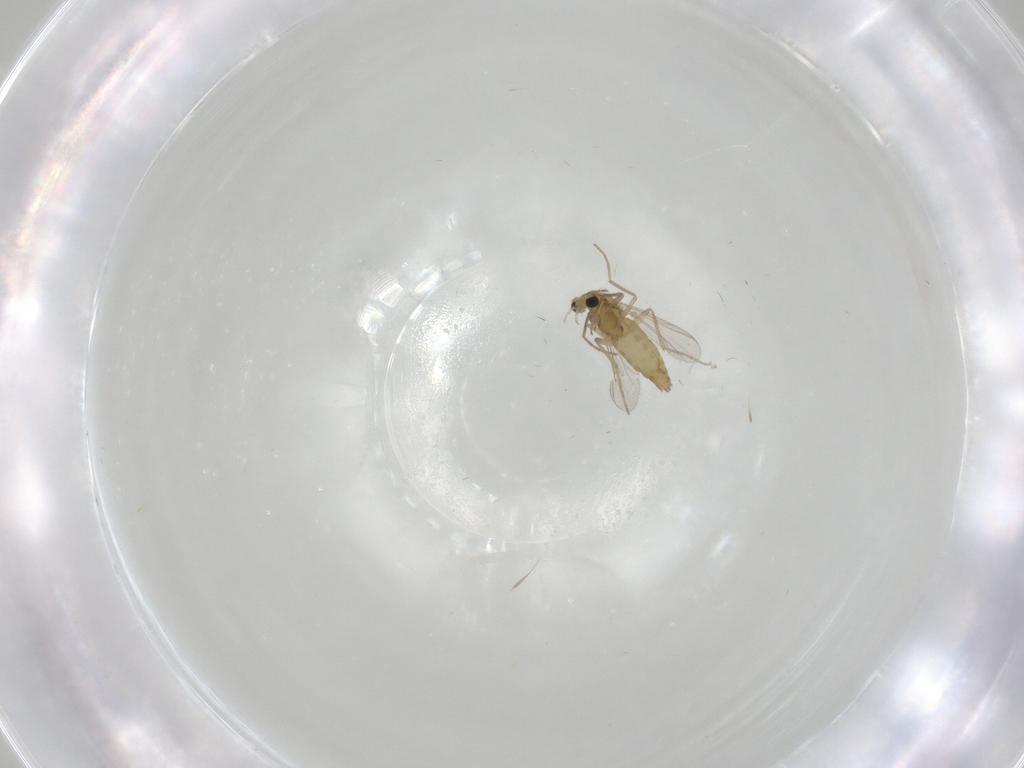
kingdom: Animalia
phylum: Arthropoda
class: Insecta
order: Diptera
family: Chironomidae
